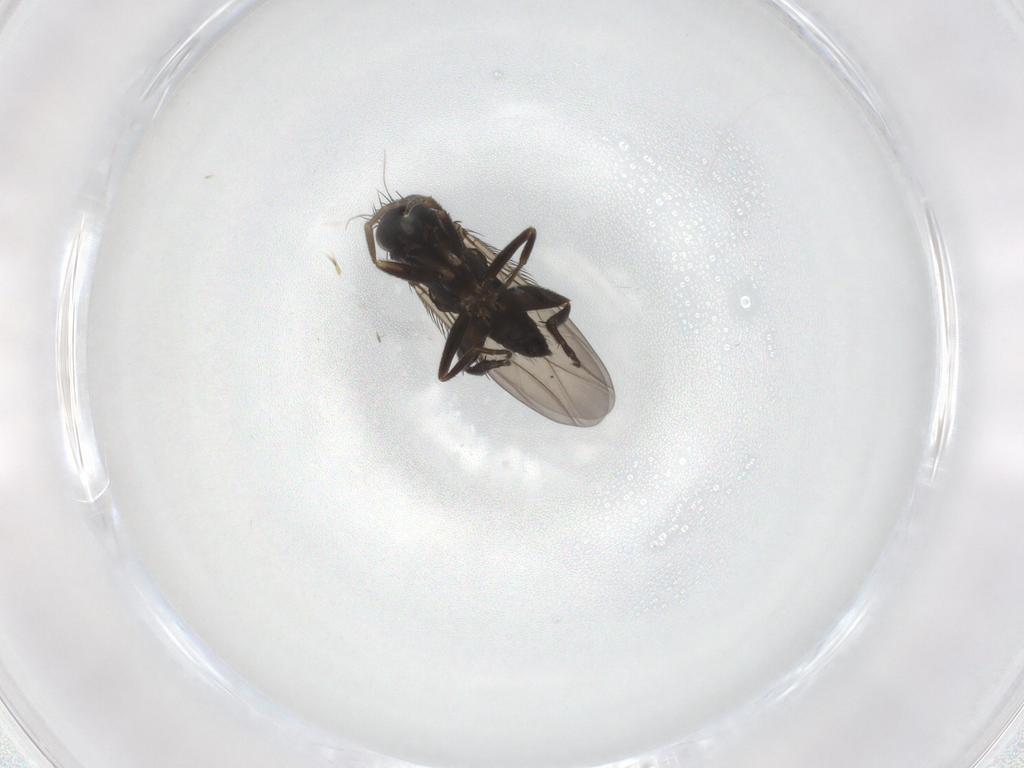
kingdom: Animalia
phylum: Arthropoda
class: Insecta
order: Diptera
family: Phoridae
